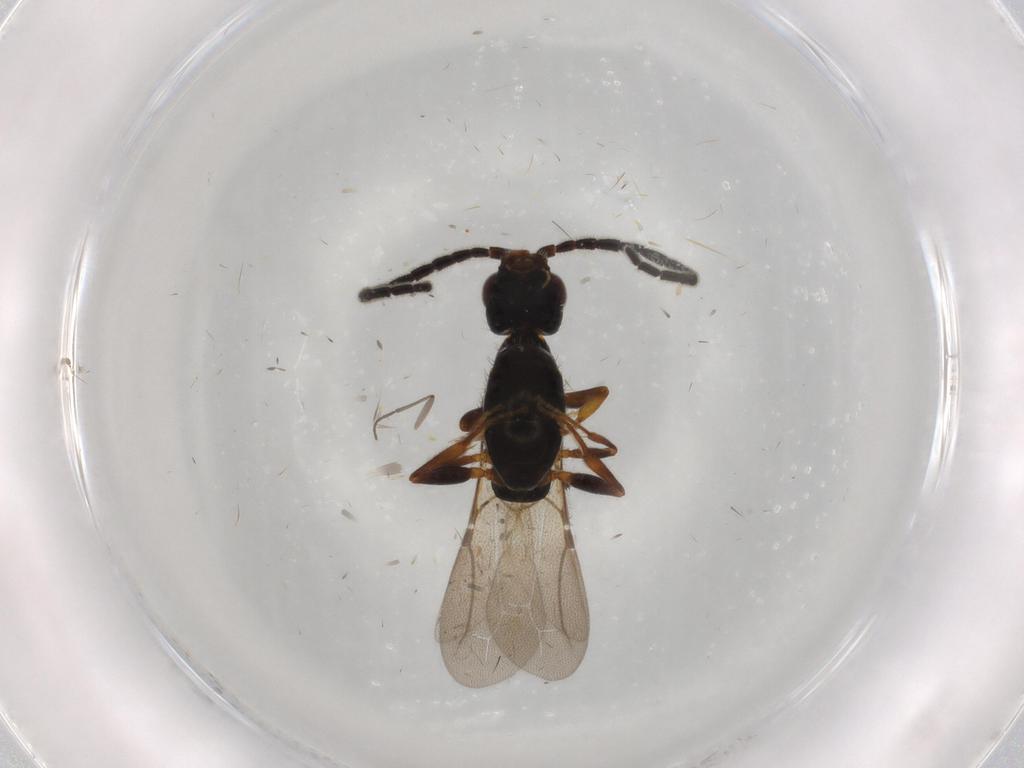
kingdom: Animalia
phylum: Arthropoda
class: Insecta
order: Hymenoptera
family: Bethylidae
